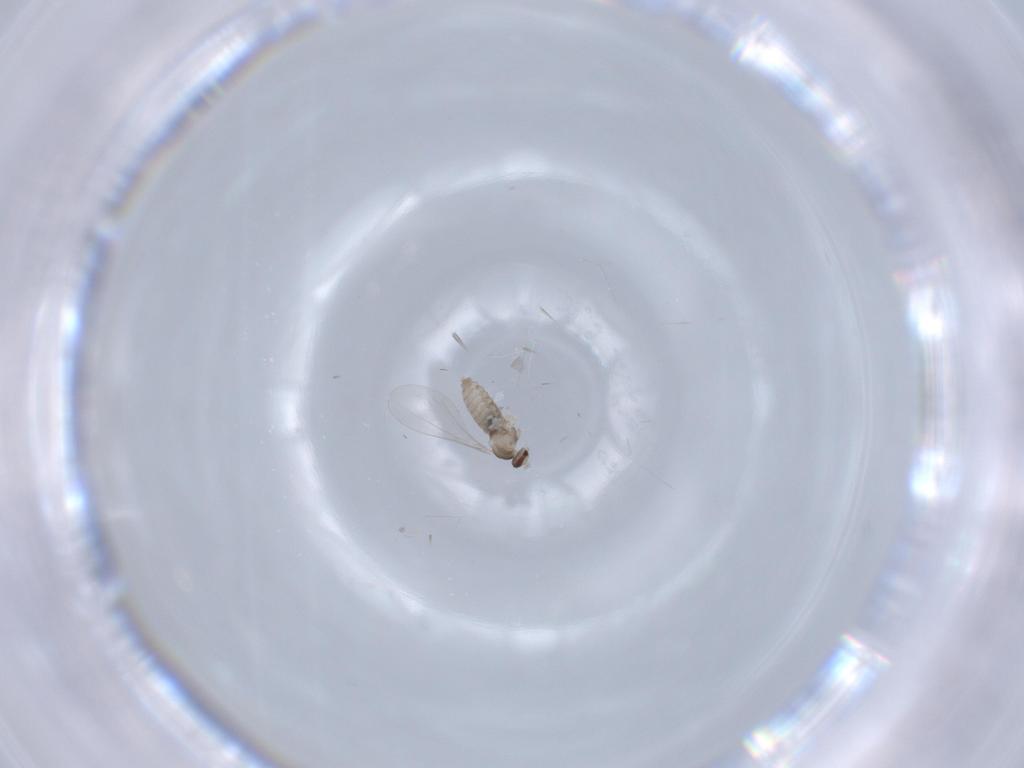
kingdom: Animalia
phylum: Arthropoda
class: Insecta
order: Diptera
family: Cecidomyiidae
